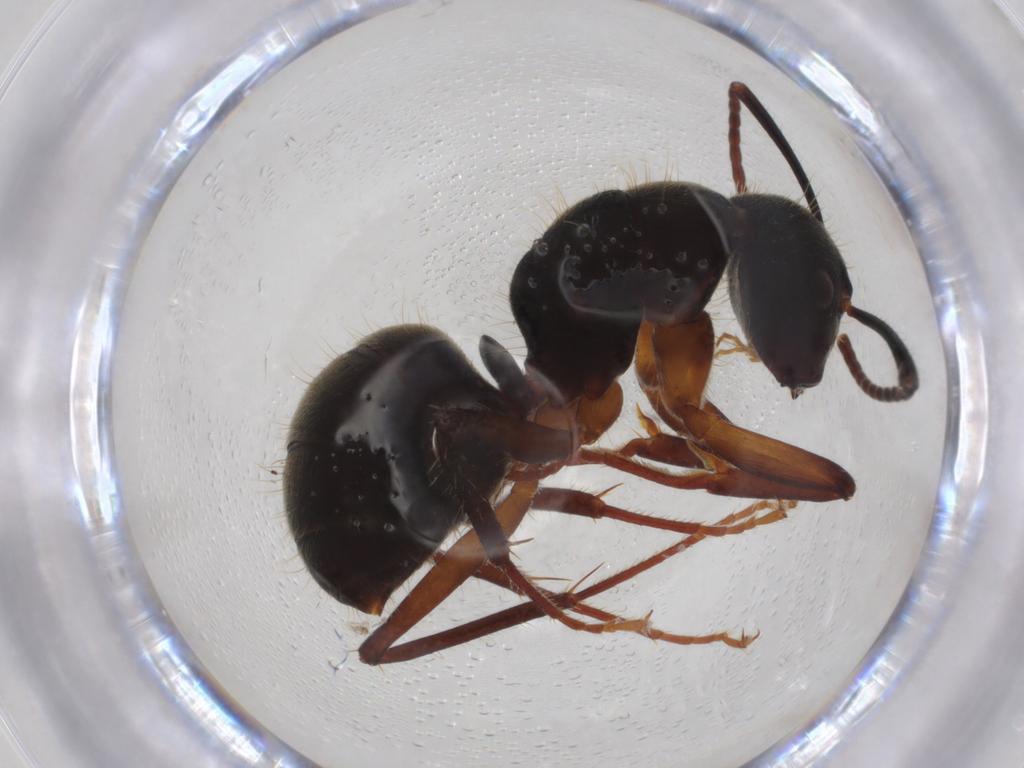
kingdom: Animalia
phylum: Arthropoda
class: Insecta
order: Hymenoptera
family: Formicidae
